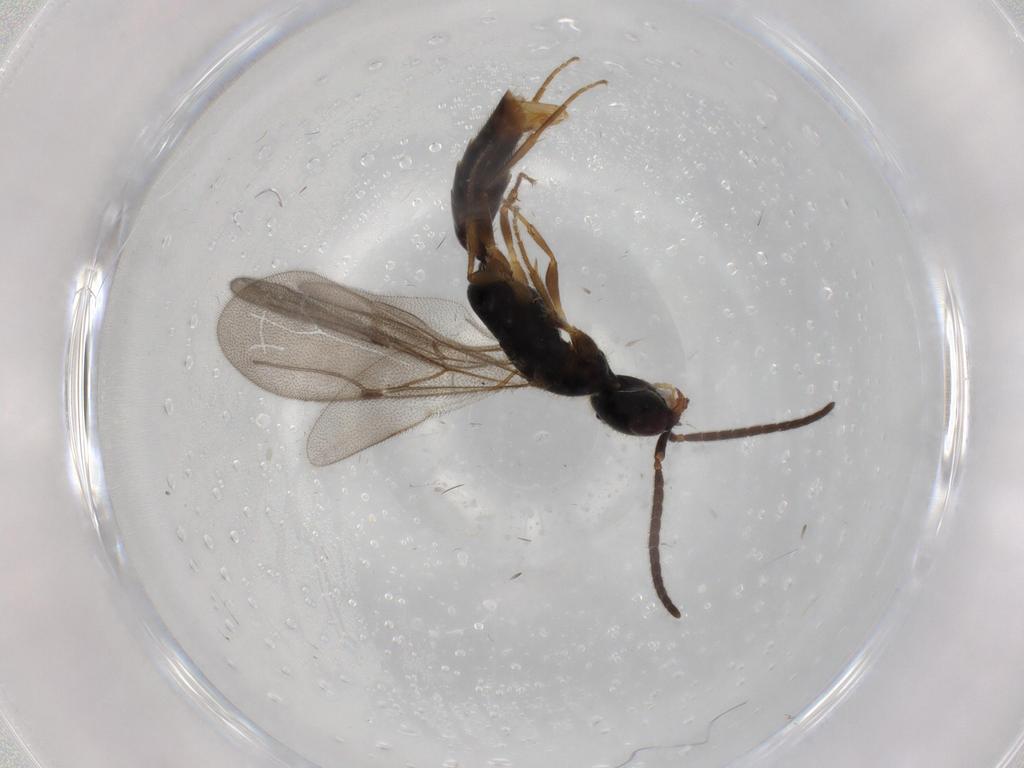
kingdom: Animalia
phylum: Arthropoda
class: Insecta
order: Hymenoptera
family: Bethylidae
